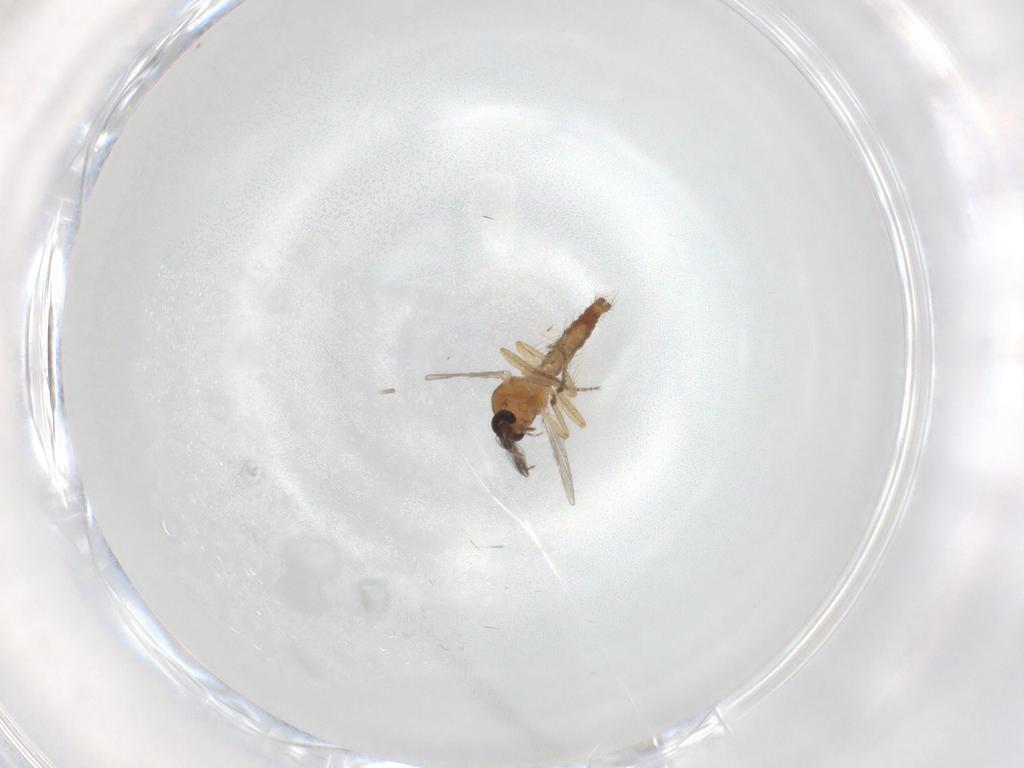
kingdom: Animalia
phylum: Arthropoda
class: Insecta
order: Diptera
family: Ceratopogonidae
